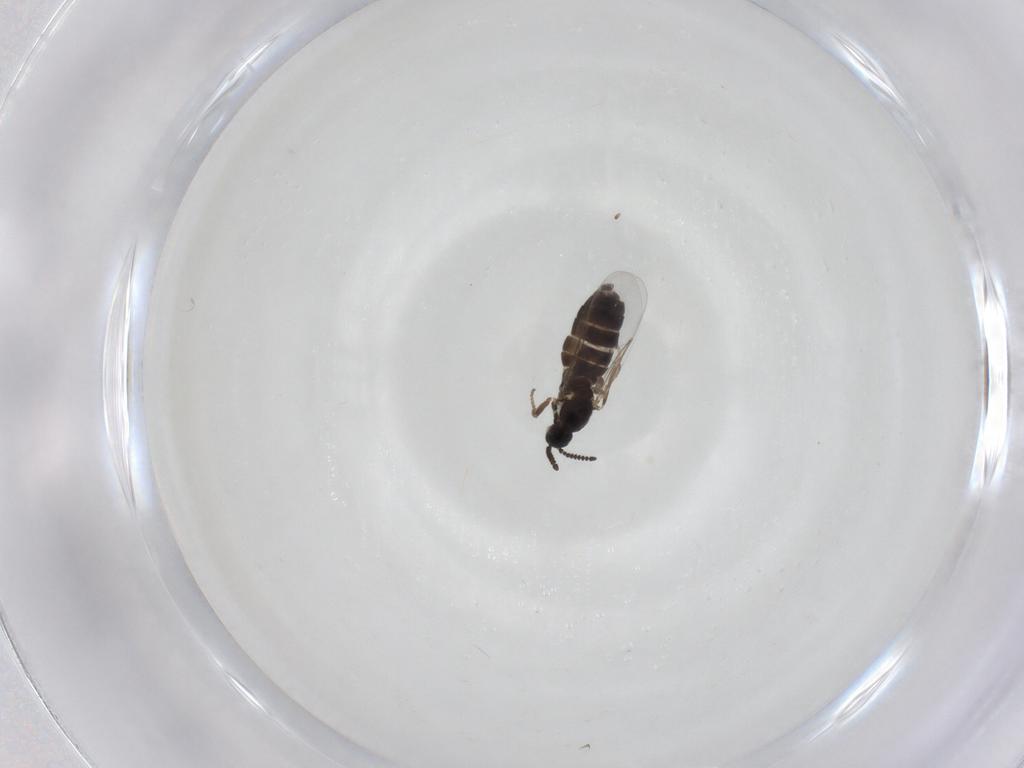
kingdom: Animalia
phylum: Arthropoda
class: Insecta
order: Diptera
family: Scatopsidae
